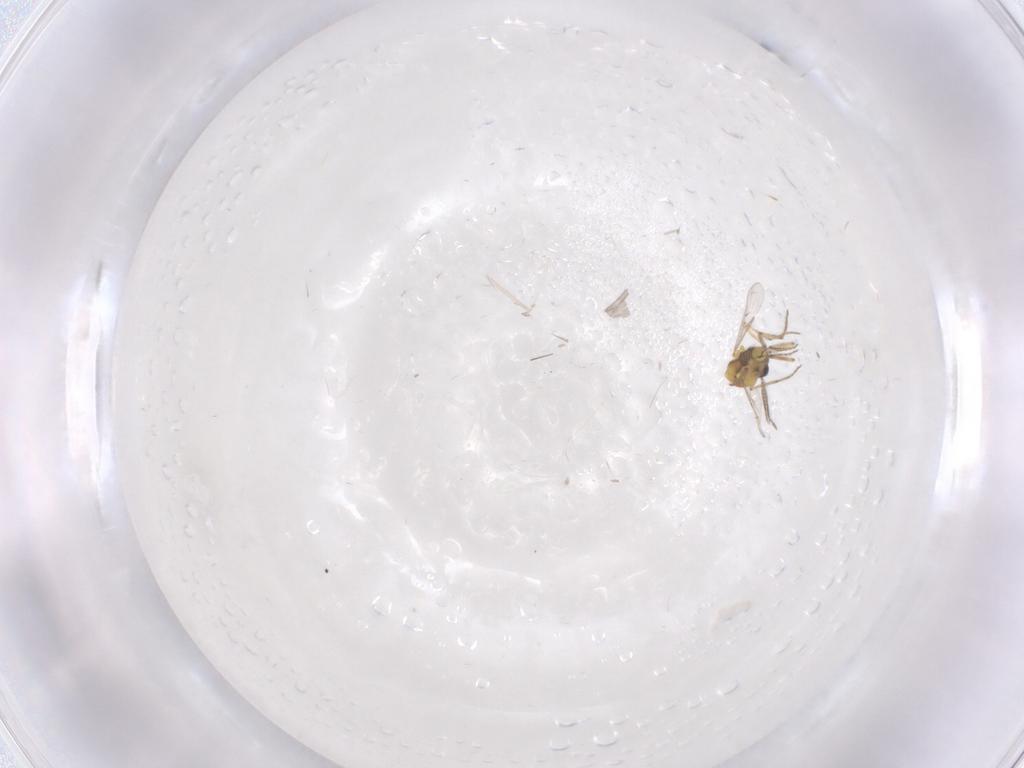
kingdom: Animalia
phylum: Arthropoda
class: Insecta
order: Diptera
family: Cecidomyiidae
